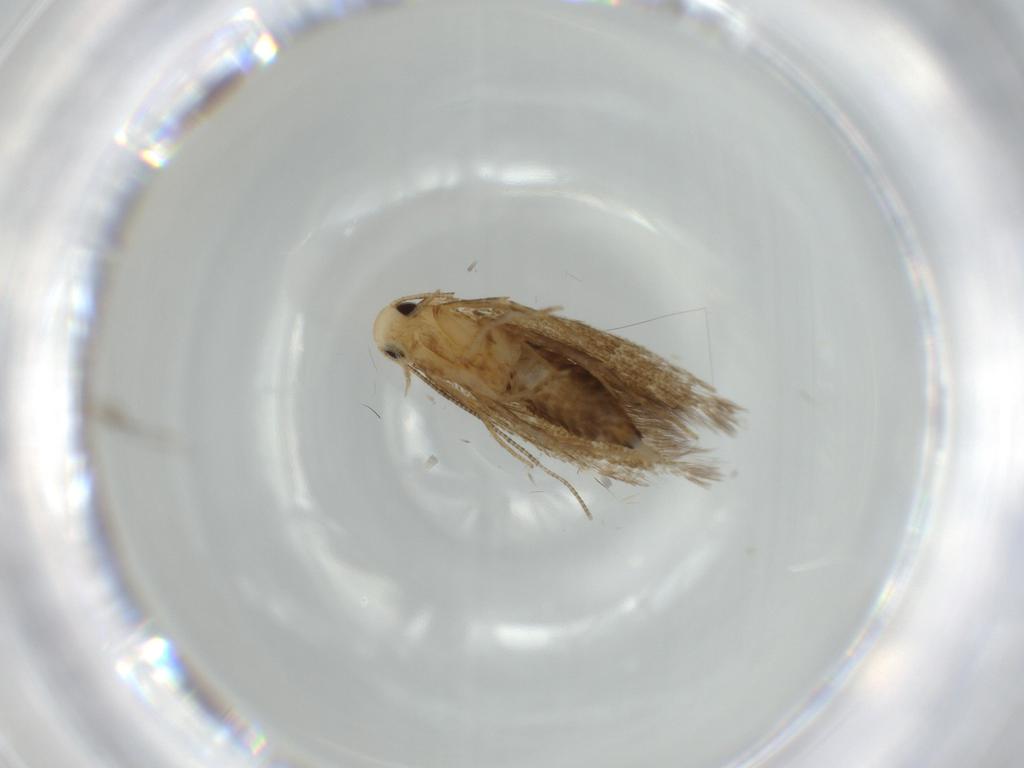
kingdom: Animalia
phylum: Arthropoda
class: Insecta
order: Lepidoptera
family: Tineidae
